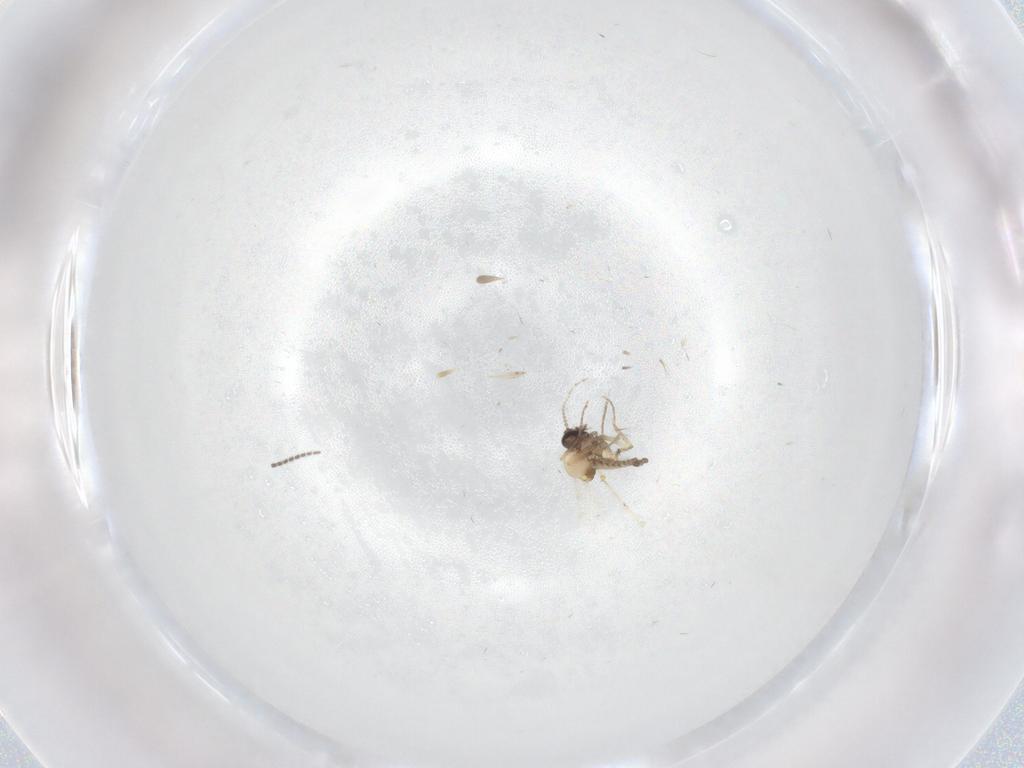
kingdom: Animalia
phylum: Arthropoda
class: Insecta
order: Diptera
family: Ceratopogonidae
